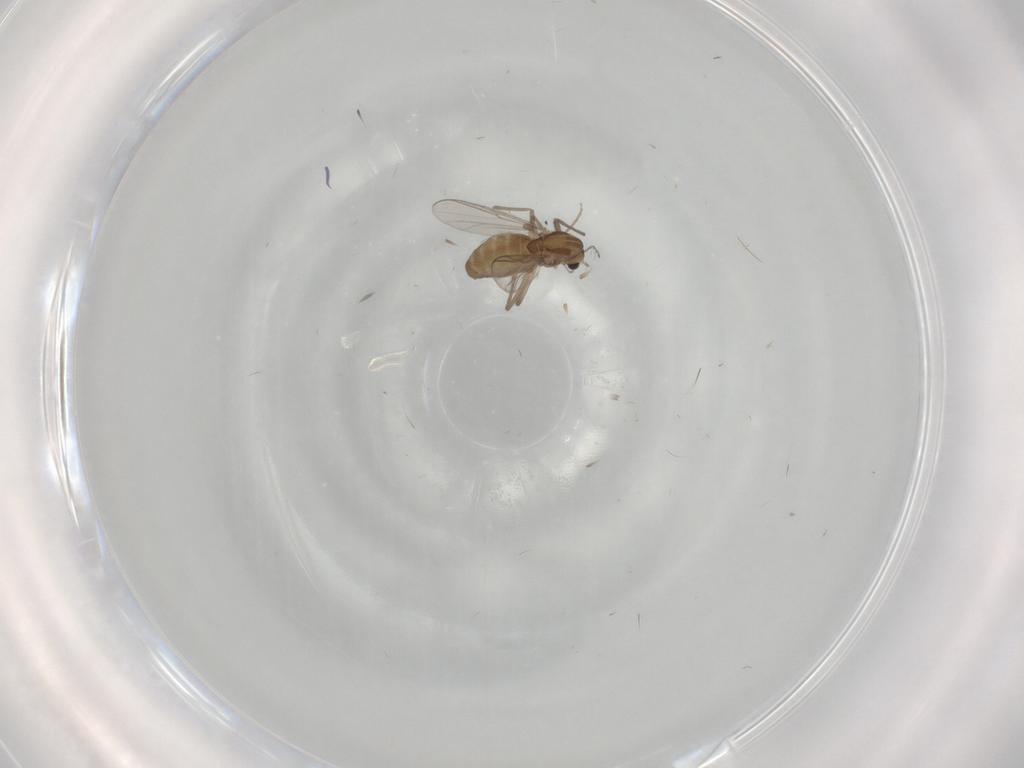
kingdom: Animalia
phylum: Arthropoda
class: Insecta
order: Diptera
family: Chironomidae
